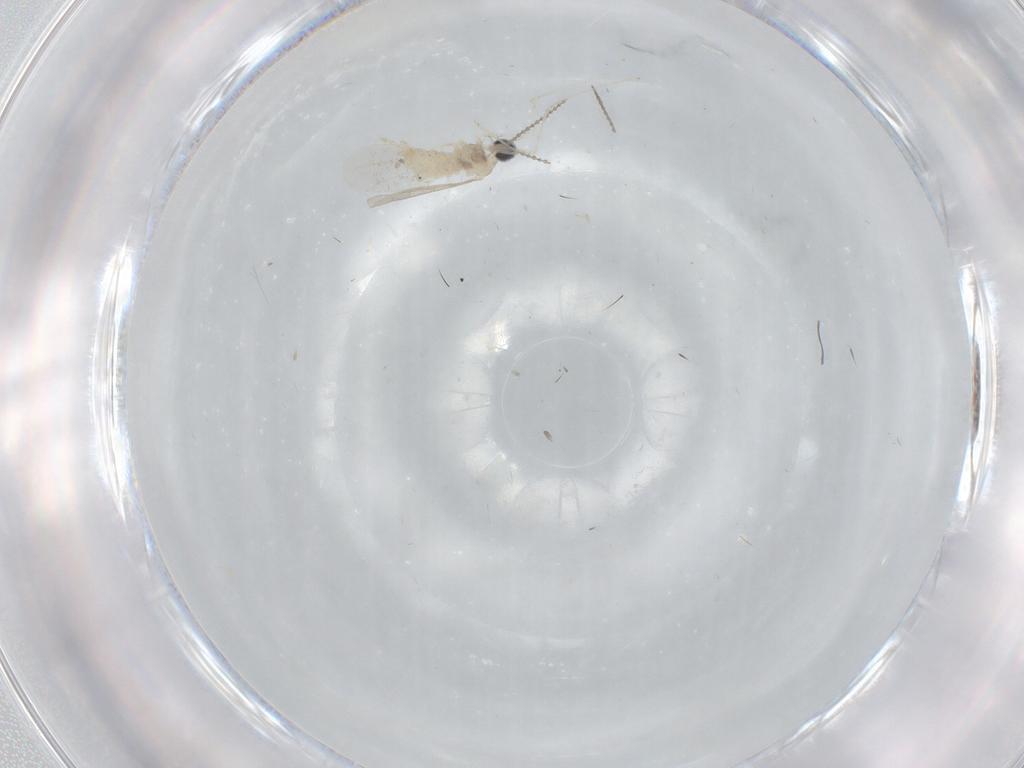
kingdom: Animalia
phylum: Arthropoda
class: Insecta
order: Diptera
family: Cecidomyiidae
